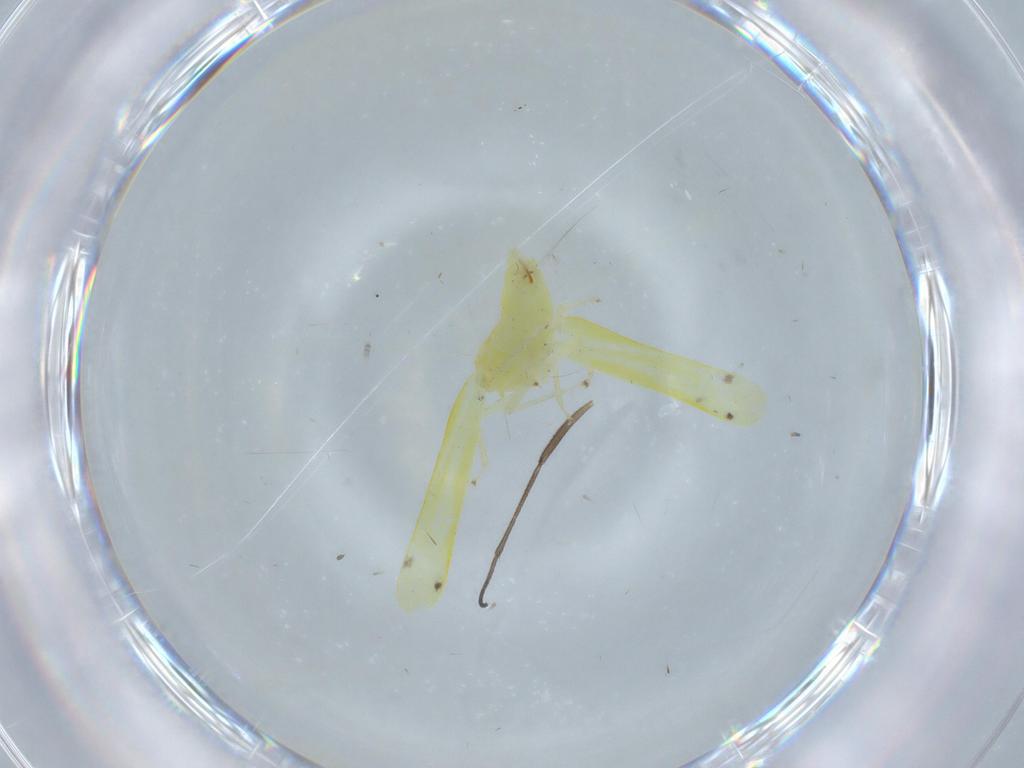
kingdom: Animalia
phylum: Arthropoda
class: Insecta
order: Hemiptera
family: Cicadellidae
